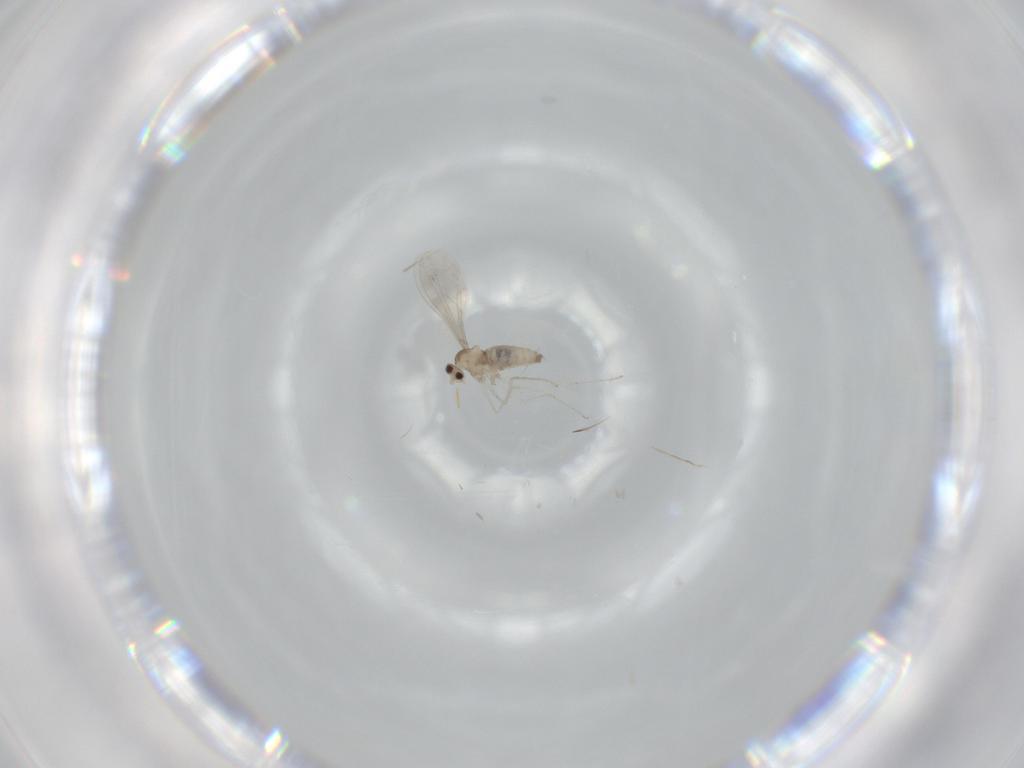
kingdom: Animalia
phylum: Arthropoda
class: Insecta
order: Diptera
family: Cecidomyiidae
